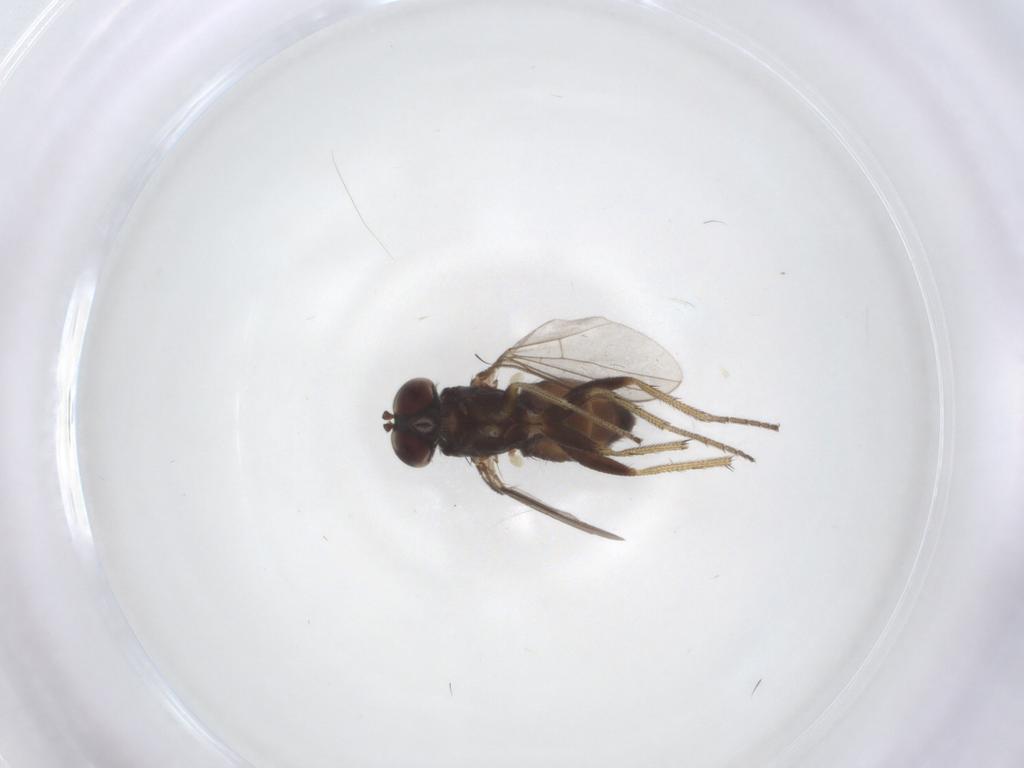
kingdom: Animalia
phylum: Arthropoda
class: Insecta
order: Diptera
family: Dolichopodidae
